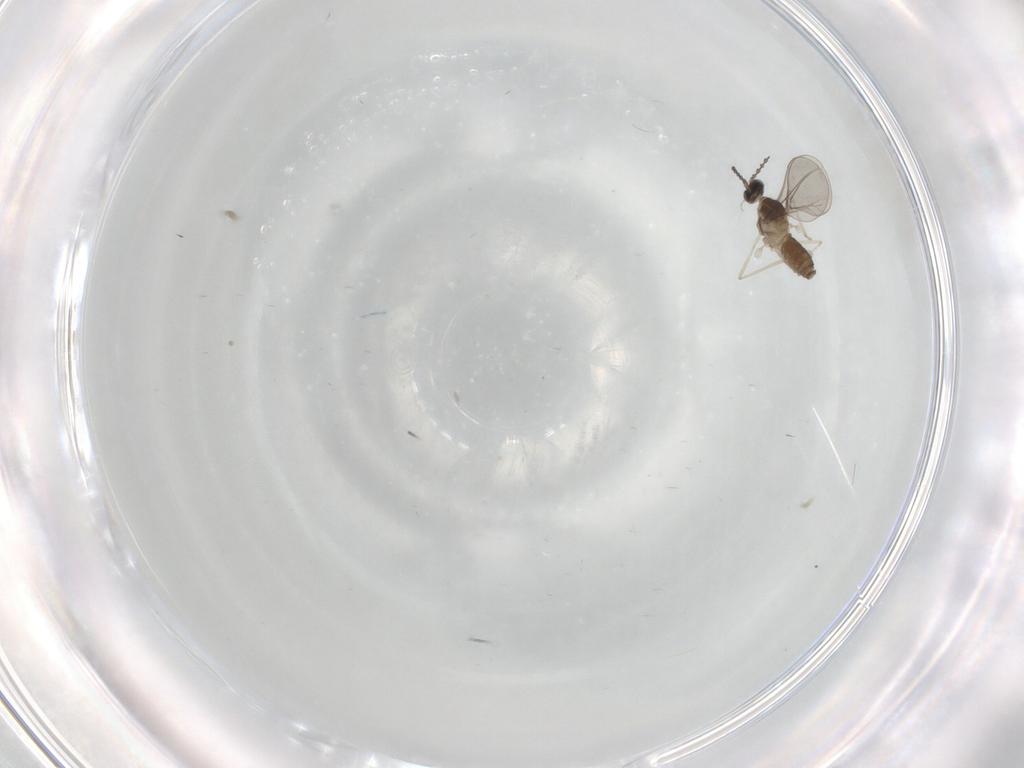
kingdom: Animalia
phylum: Arthropoda
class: Insecta
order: Diptera
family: Cecidomyiidae
